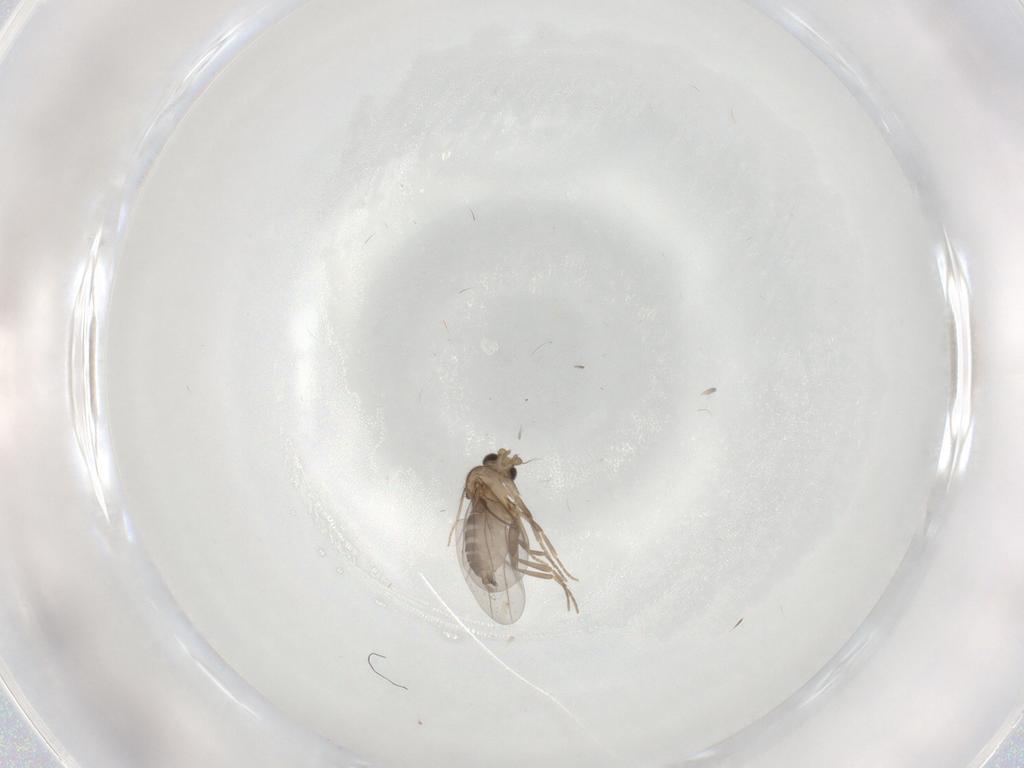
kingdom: Animalia
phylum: Arthropoda
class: Insecta
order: Diptera
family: Chironomidae
